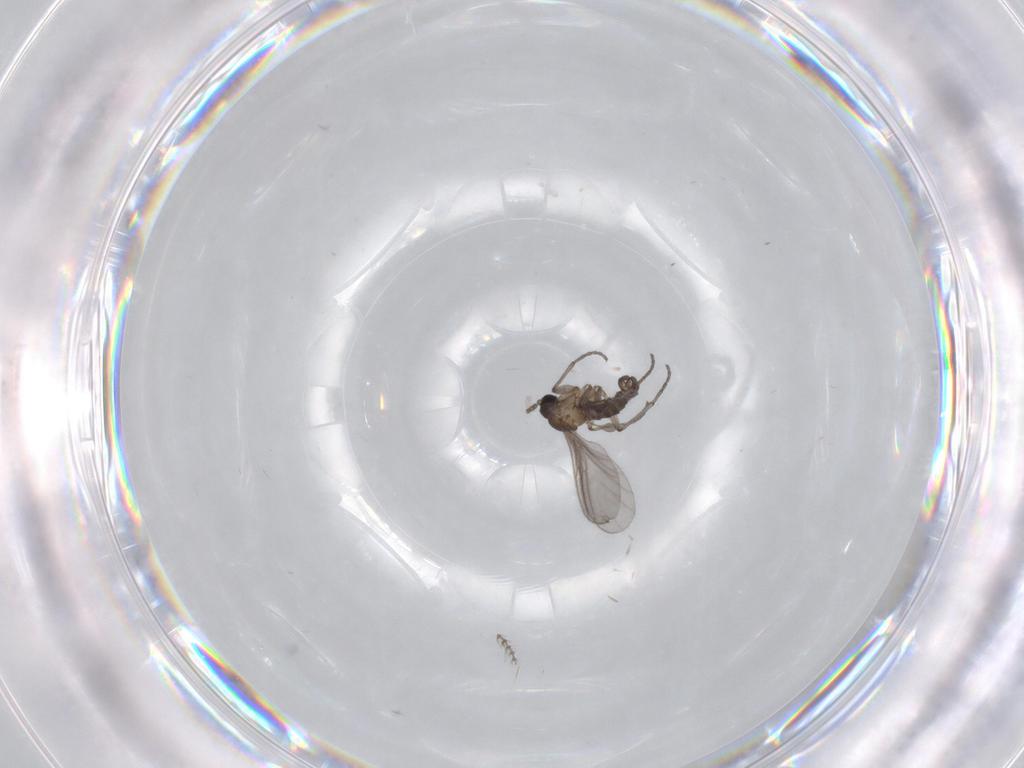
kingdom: Animalia
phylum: Arthropoda
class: Insecta
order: Diptera
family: Sciaridae
